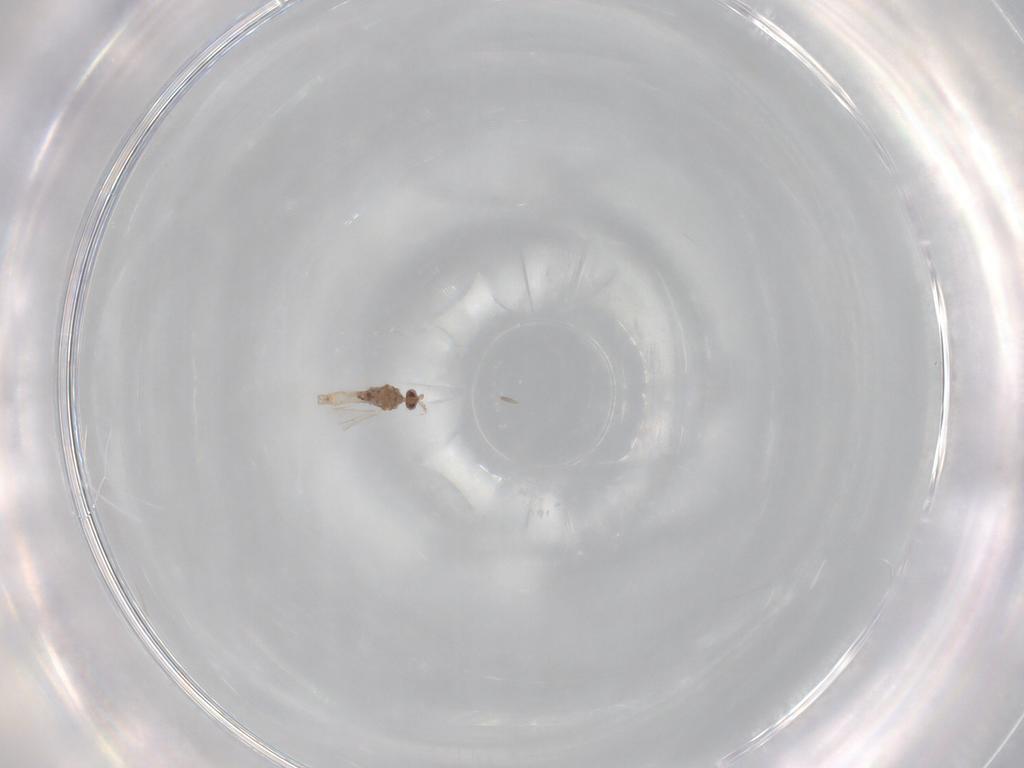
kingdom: Animalia
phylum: Arthropoda
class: Insecta
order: Diptera
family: Cecidomyiidae
